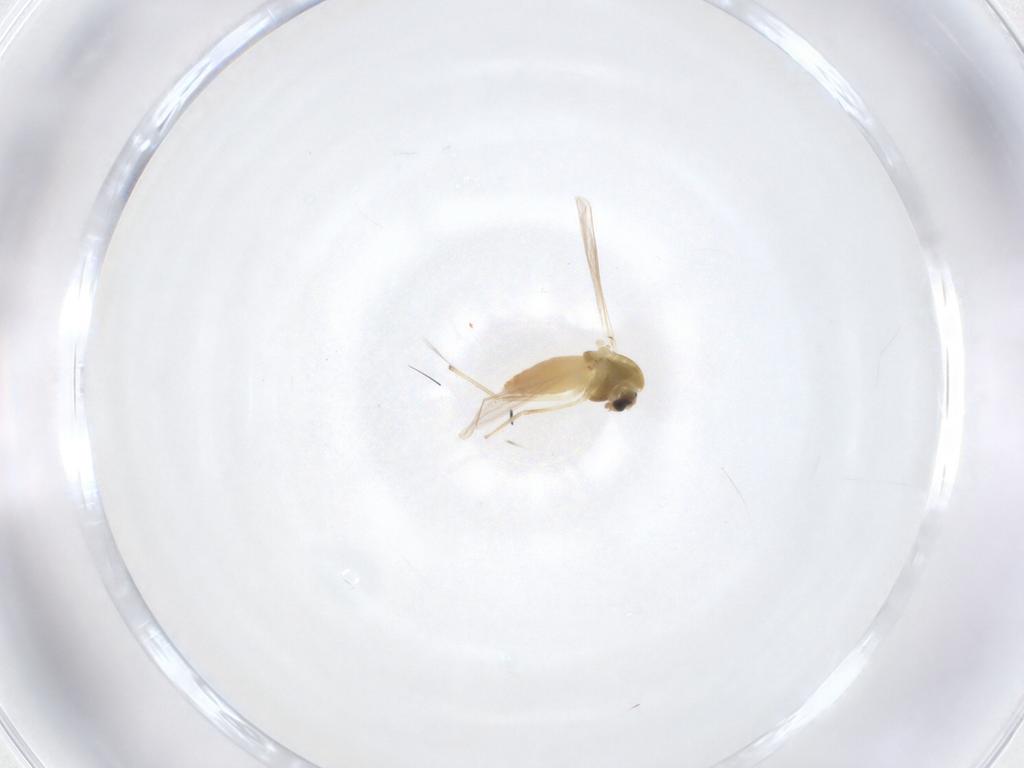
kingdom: Animalia
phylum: Arthropoda
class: Insecta
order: Diptera
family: Chironomidae
